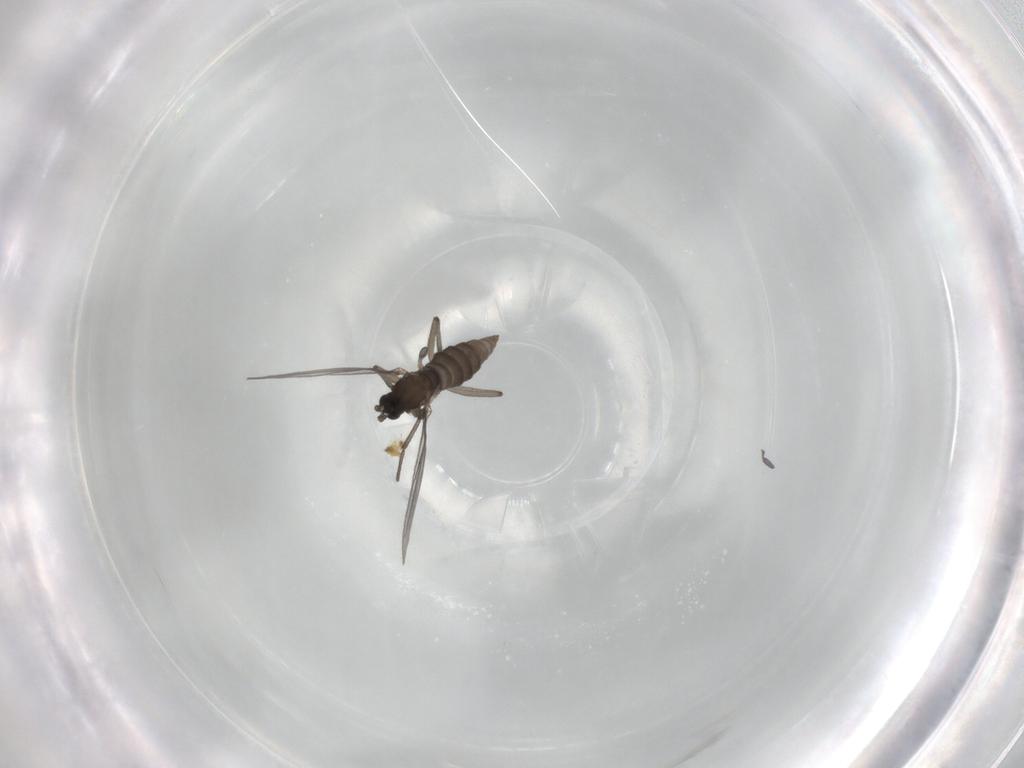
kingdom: Animalia
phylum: Arthropoda
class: Insecta
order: Diptera
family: Sciaridae
